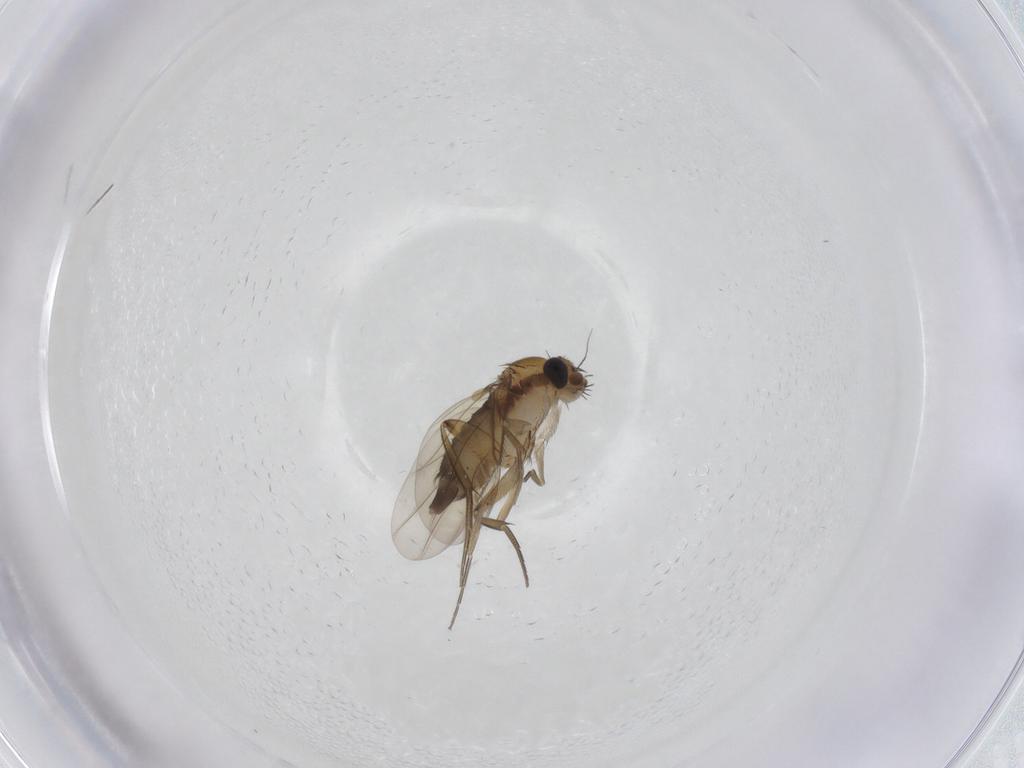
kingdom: Animalia
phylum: Arthropoda
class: Insecta
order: Diptera
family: Phoridae
